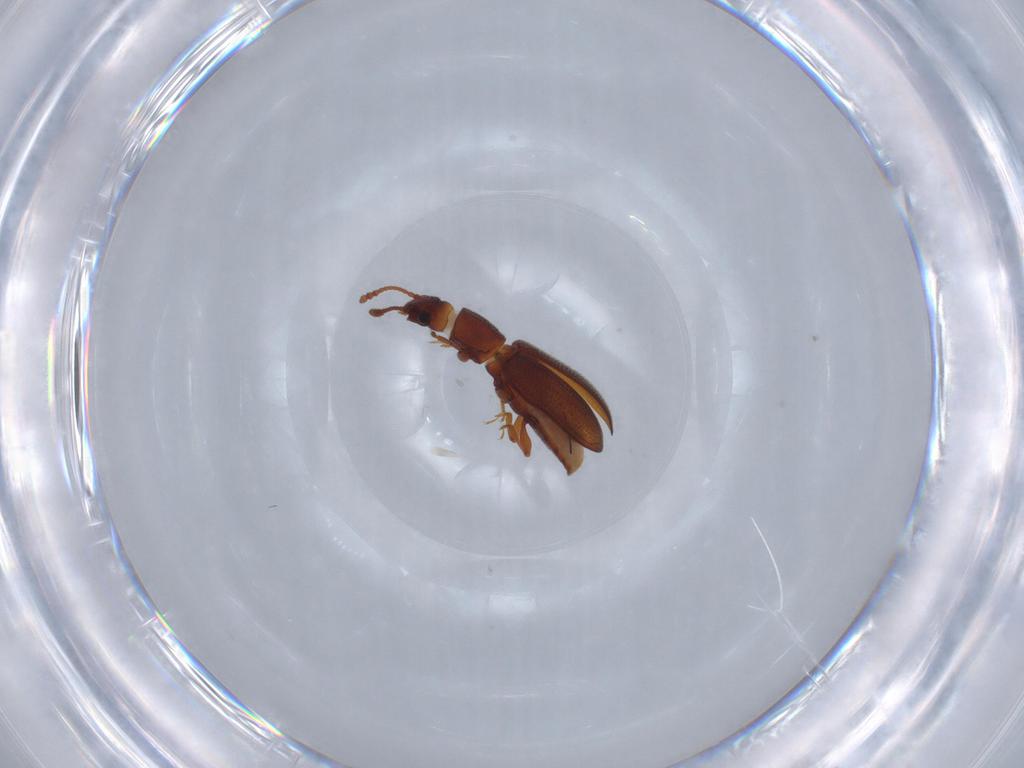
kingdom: Animalia
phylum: Arthropoda
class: Insecta
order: Coleoptera
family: Silvanidae
